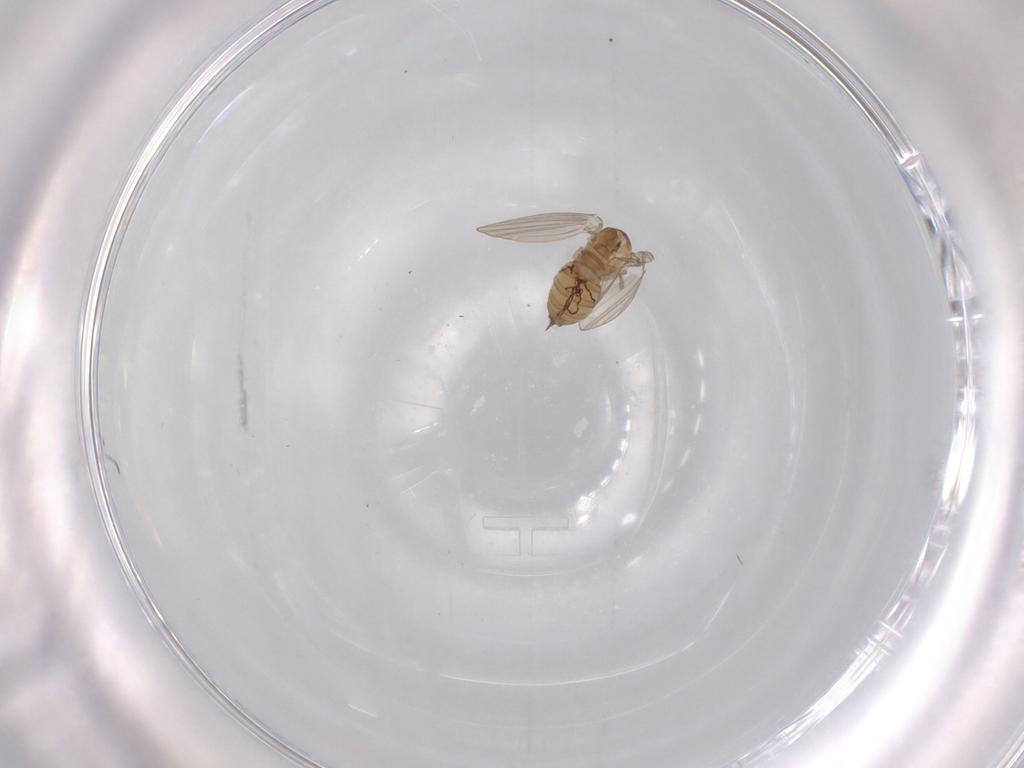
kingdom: Animalia
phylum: Arthropoda
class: Insecta
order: Diptera
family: Psychodidae
